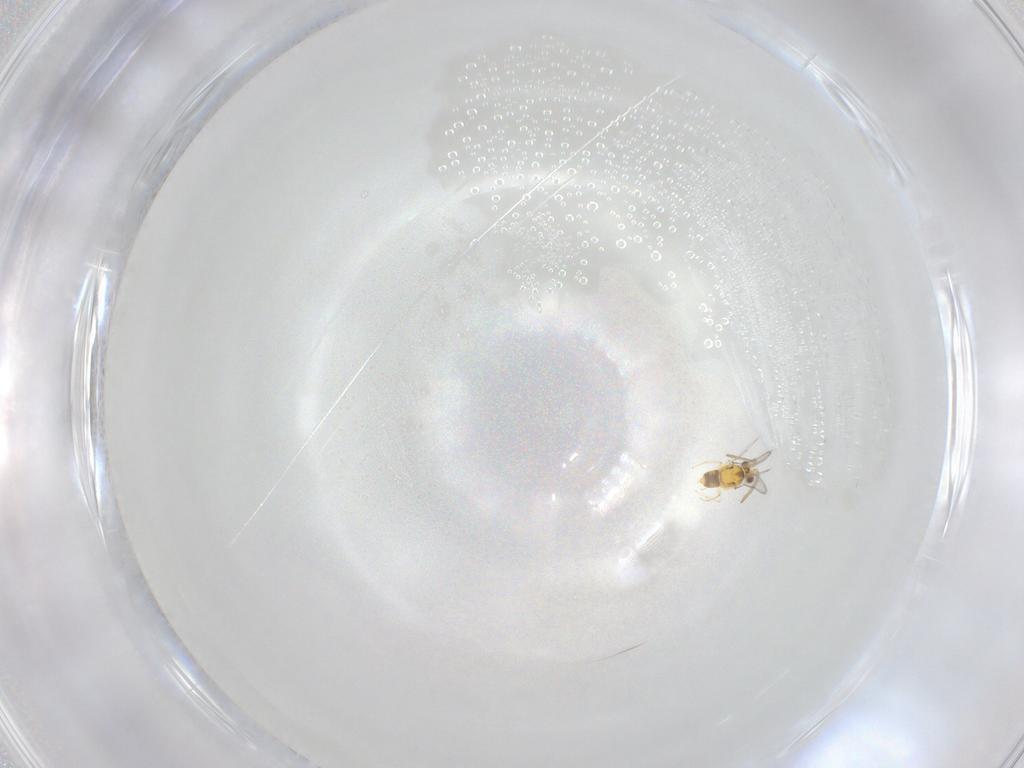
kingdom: Animalia
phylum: Arthropoda
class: Insecta
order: Hymenoptera
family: Aphelinidae
